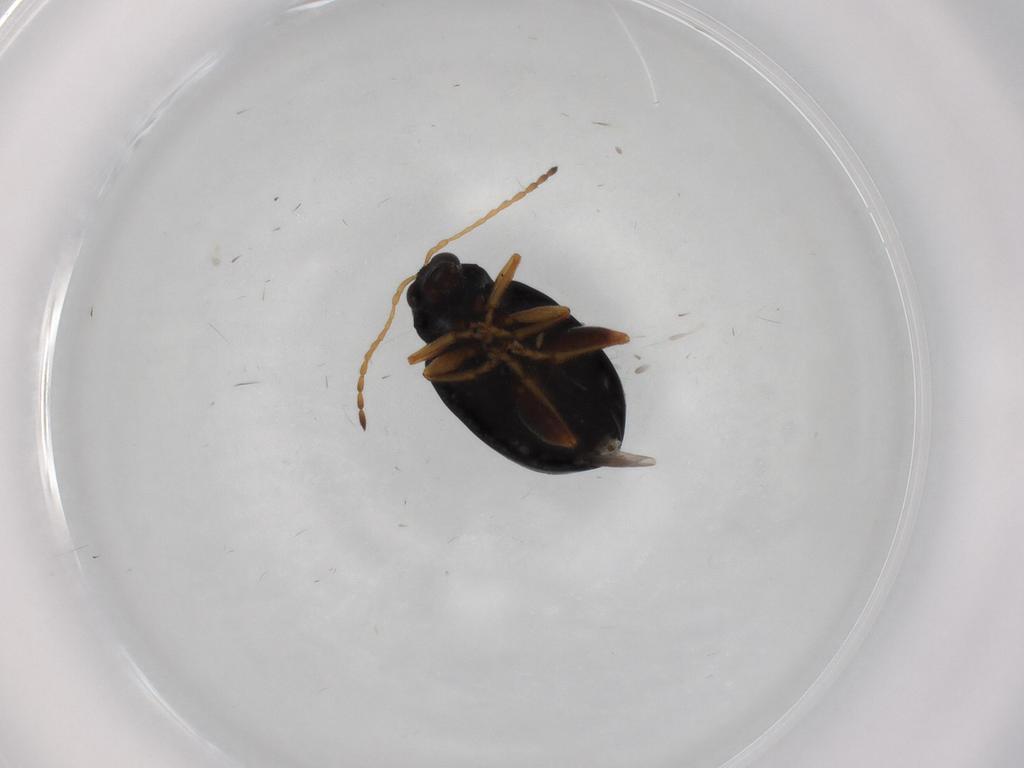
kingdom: Animalia
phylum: Arthropoda
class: Insecta
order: Coleoptera
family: Chrysomelidae
